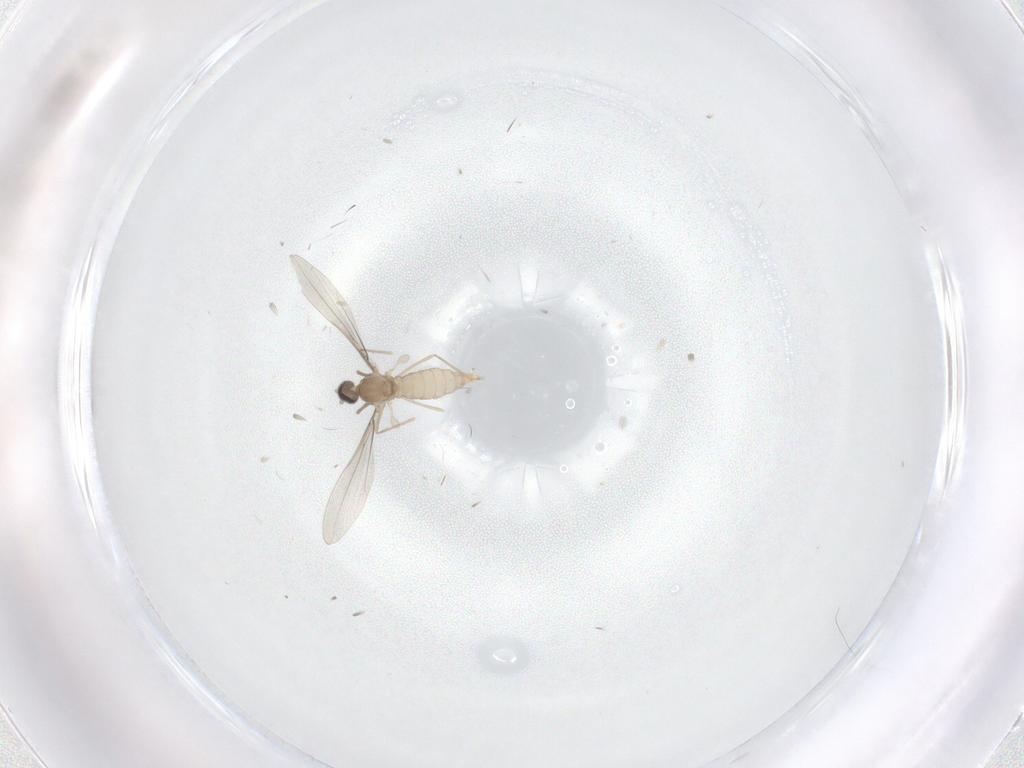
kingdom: Animalia
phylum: Arthropoda
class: Insecta
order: Diptera
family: Cecidomyiidae
